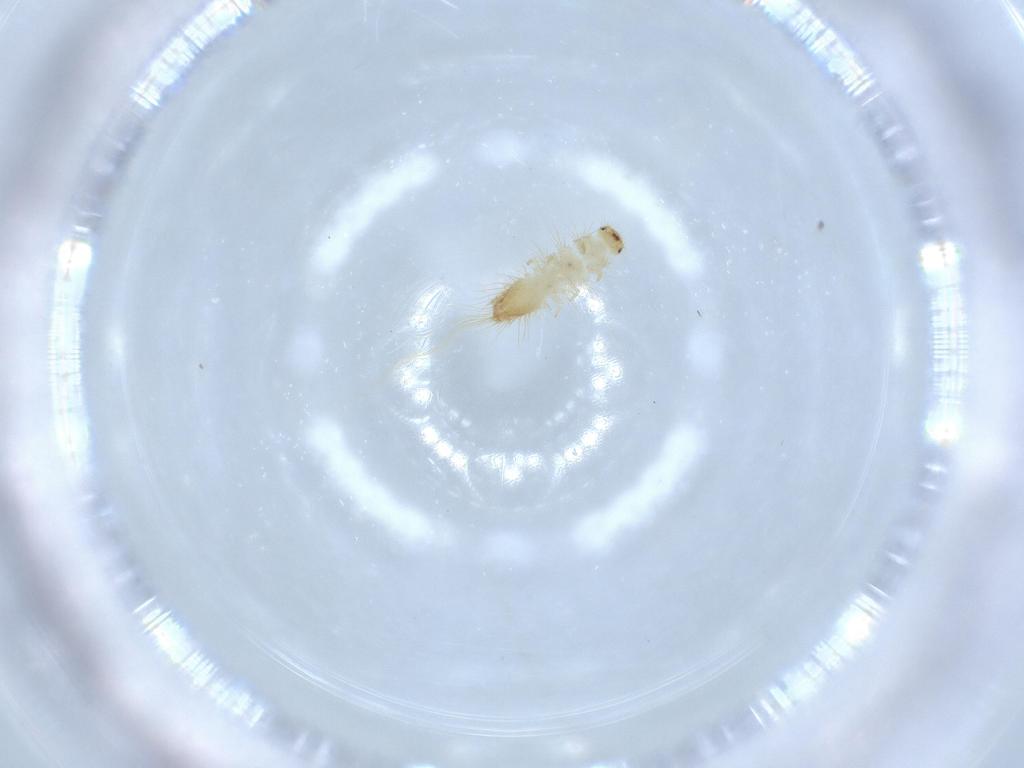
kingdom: Animalia
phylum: Arthropoda
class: Insecta
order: Coleoptera
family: Dermestidae
